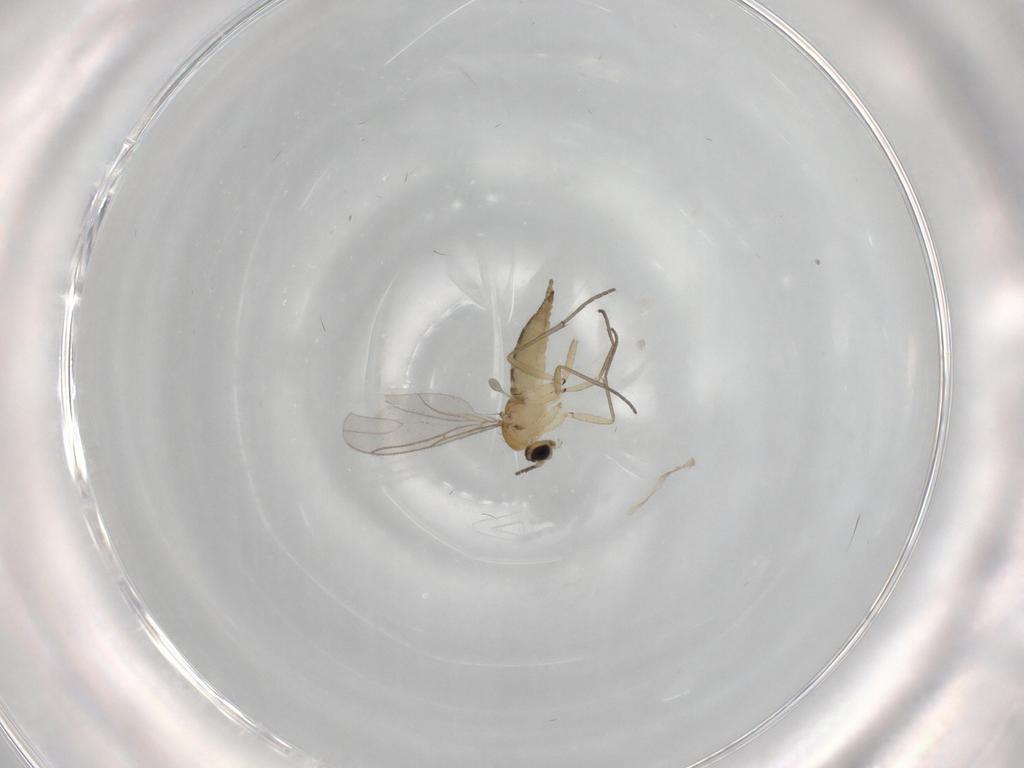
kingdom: Animalia
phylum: Arthropoda
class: Insecta
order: Diptera
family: Sciaridae
